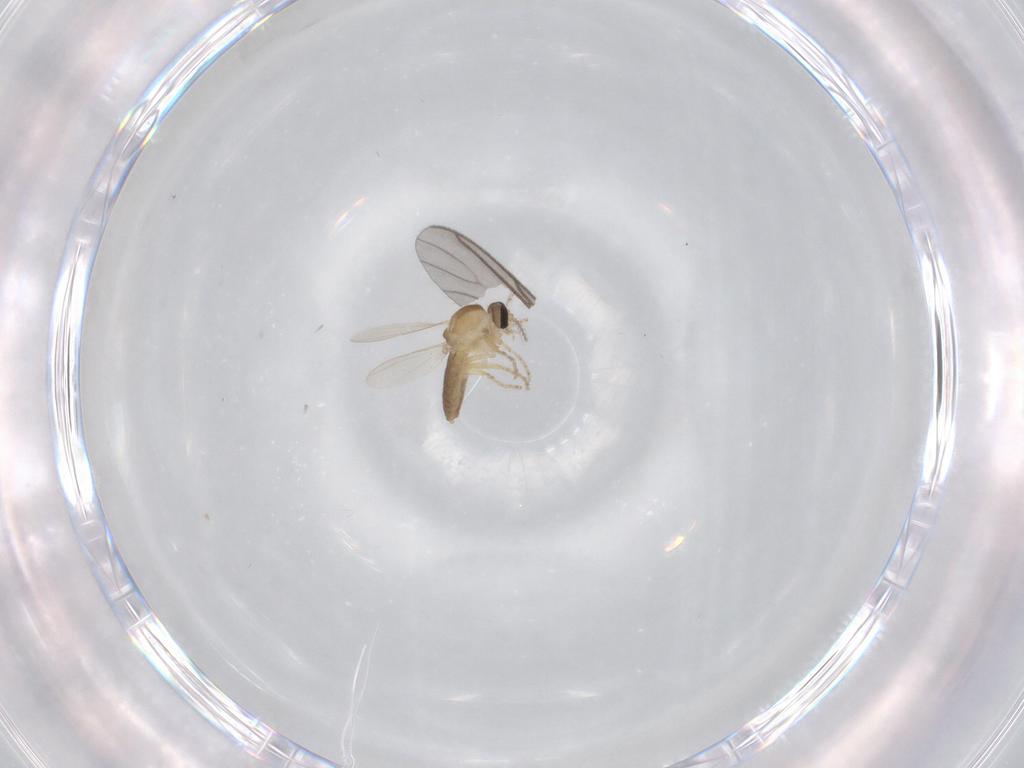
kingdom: Animalia
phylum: Arthropoda
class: Insecta
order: Diptera
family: Ceratopogonidae
